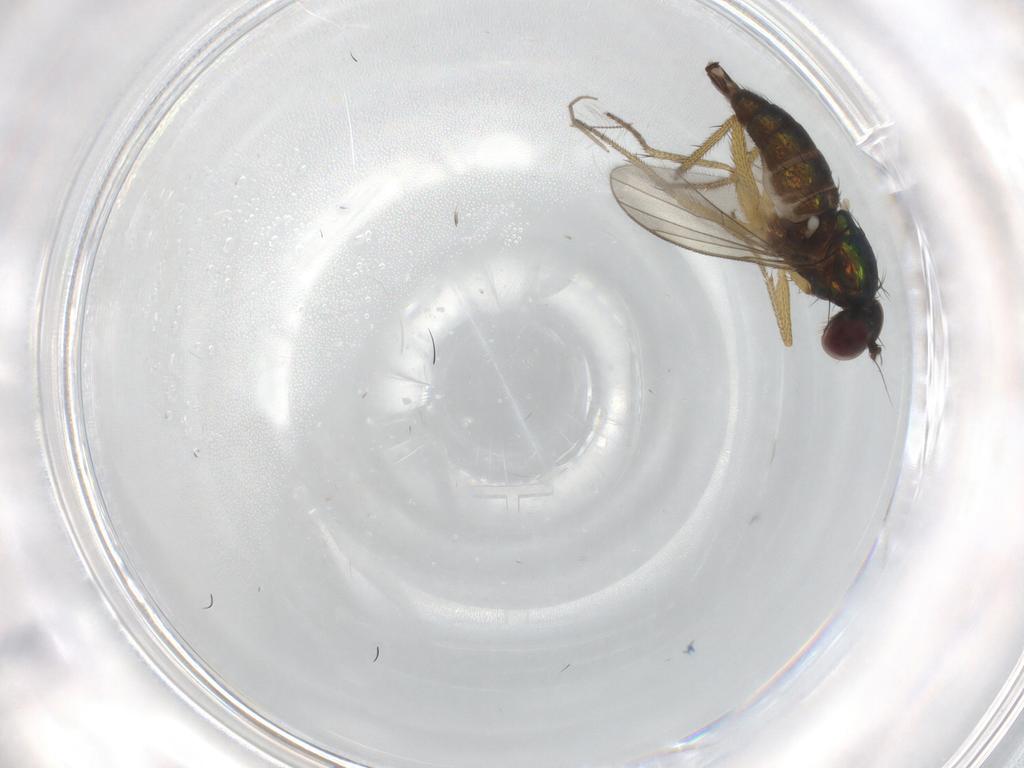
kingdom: Animalia
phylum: Arthropoda
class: Insecta
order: Diptera
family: Dolichopodidae
